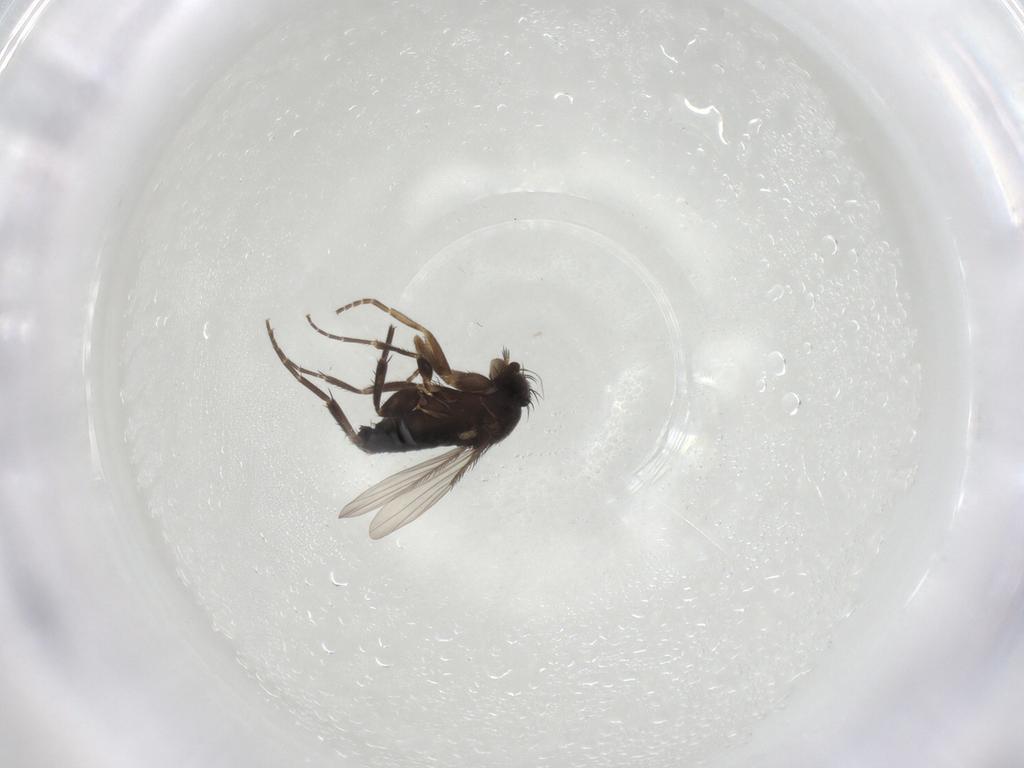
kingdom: Animalia
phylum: Arthropoda
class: Insecta
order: Diptera
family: Phoridae
